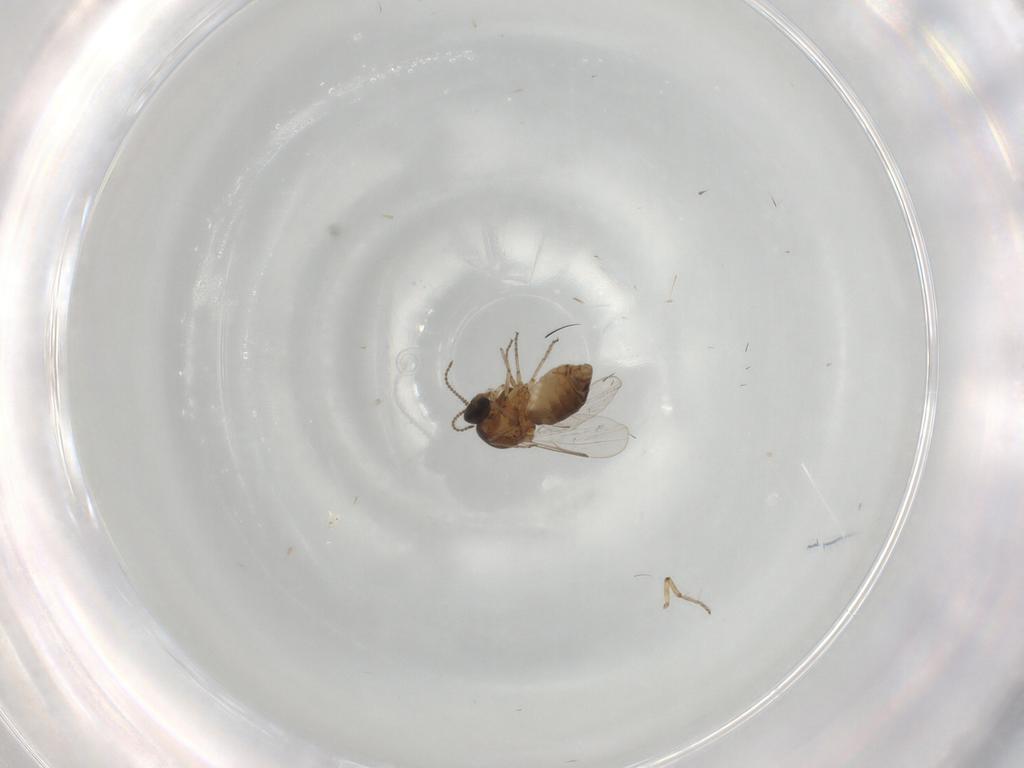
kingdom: Animalia
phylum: Arthropoda
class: Insecta
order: Diptera
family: Ceratopogonidae
